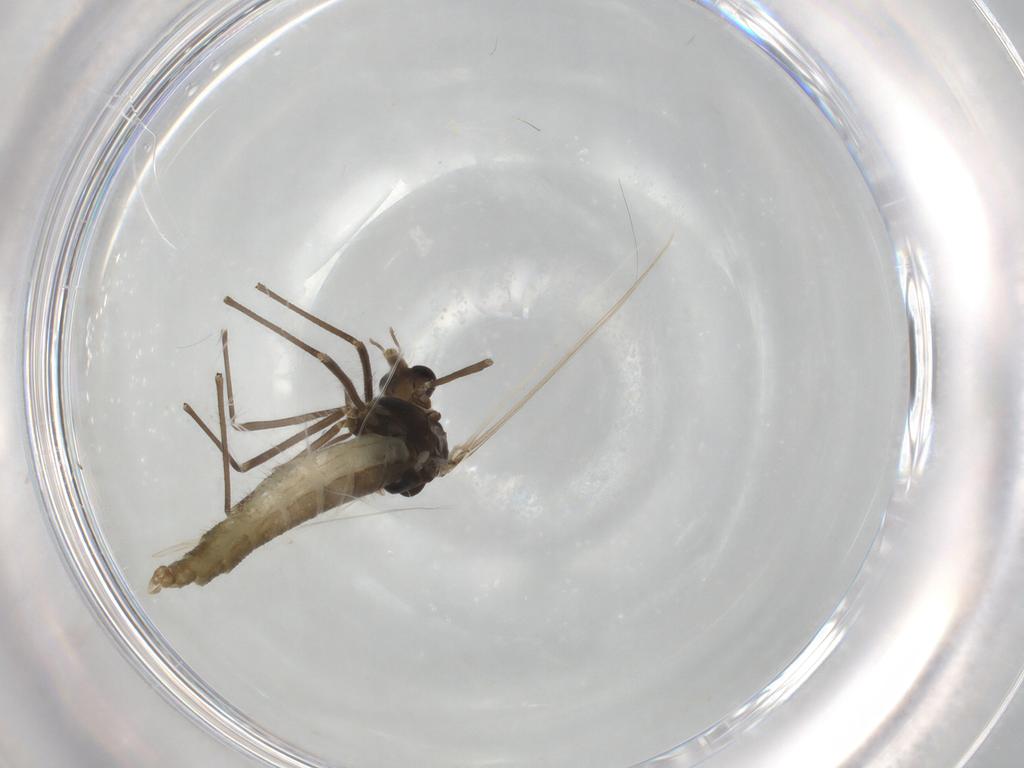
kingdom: Animalia
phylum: Arthropoda
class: Insecta
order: Diptera
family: Chironomidae
